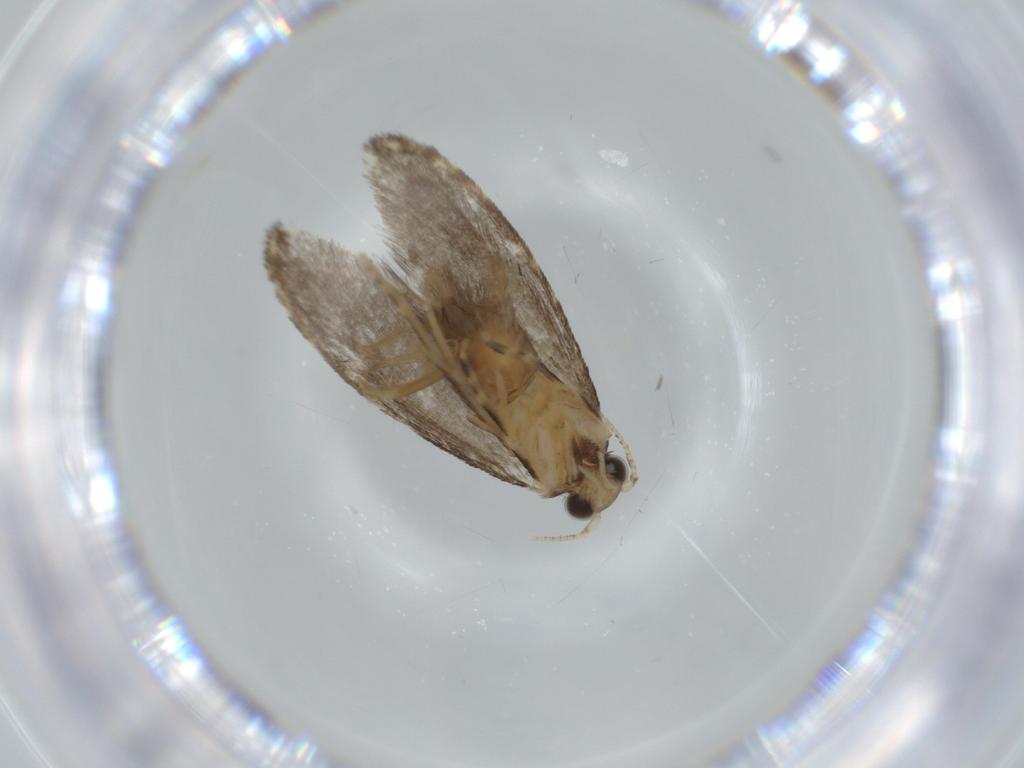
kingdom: Animalia
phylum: Arthropoda
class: Insecta
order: Lepidoptera
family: Tineidae
